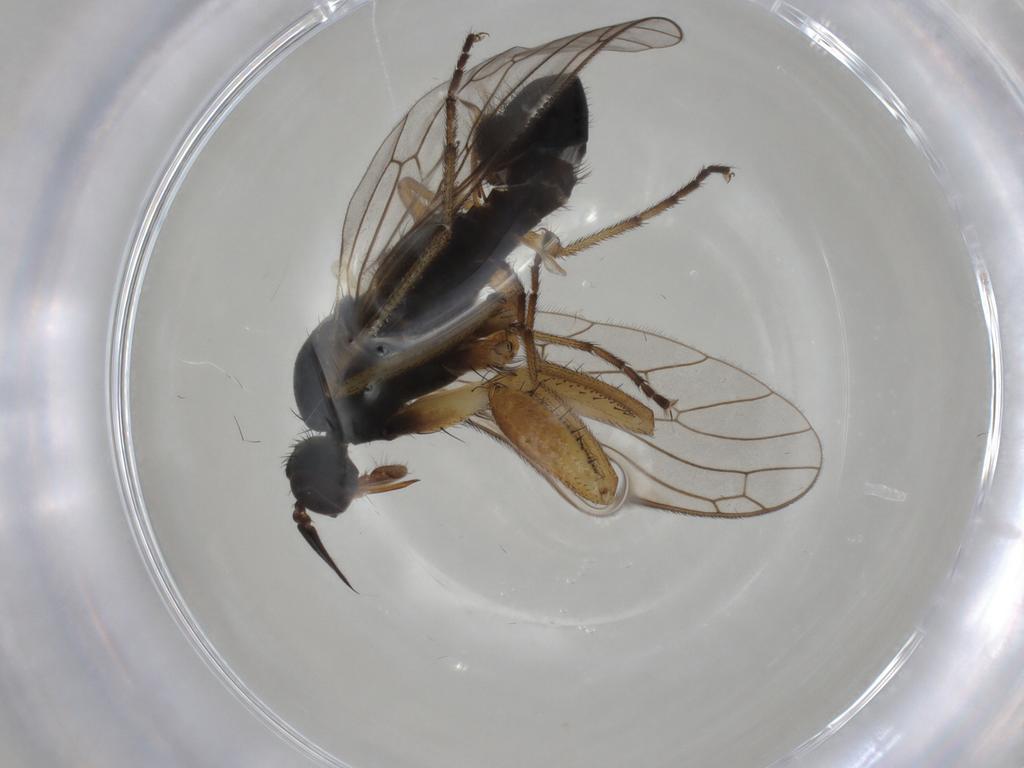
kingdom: Animalia
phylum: Arthropoda
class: Insecta
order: Diptera
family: Cecidomyiidae
